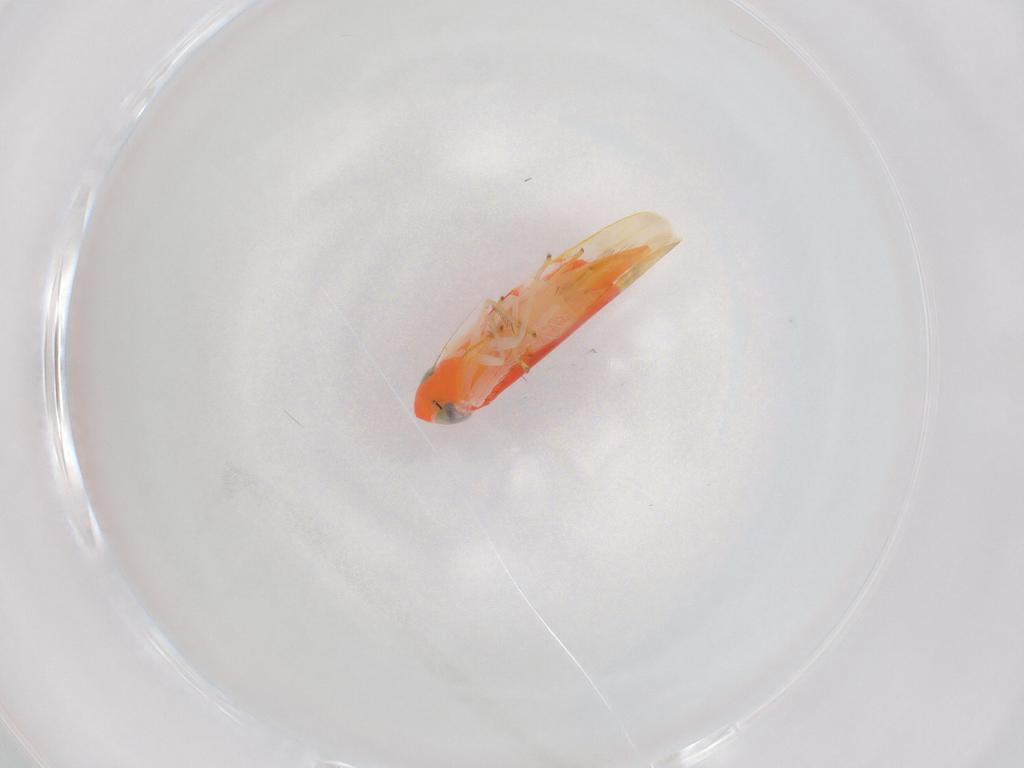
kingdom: Animalia
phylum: Arthropoda
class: Insecta
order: Hemiptera
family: Cicadellidae
